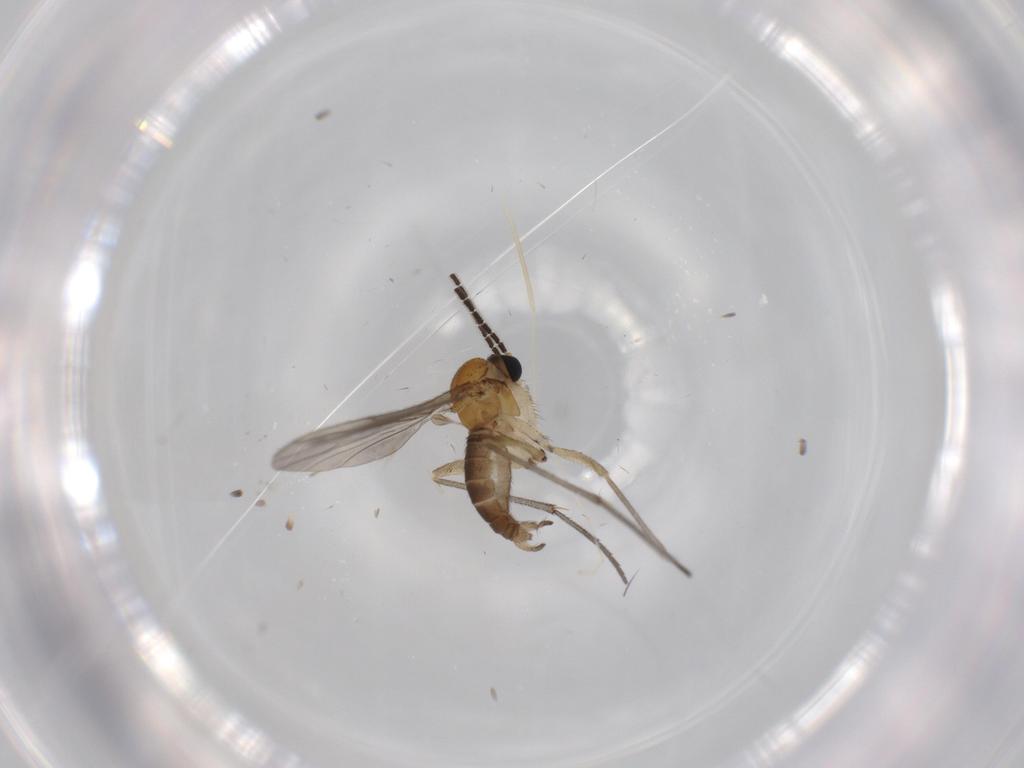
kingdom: Animalia
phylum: Arthropoda
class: Insecta
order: Diptera
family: Sciaridae
